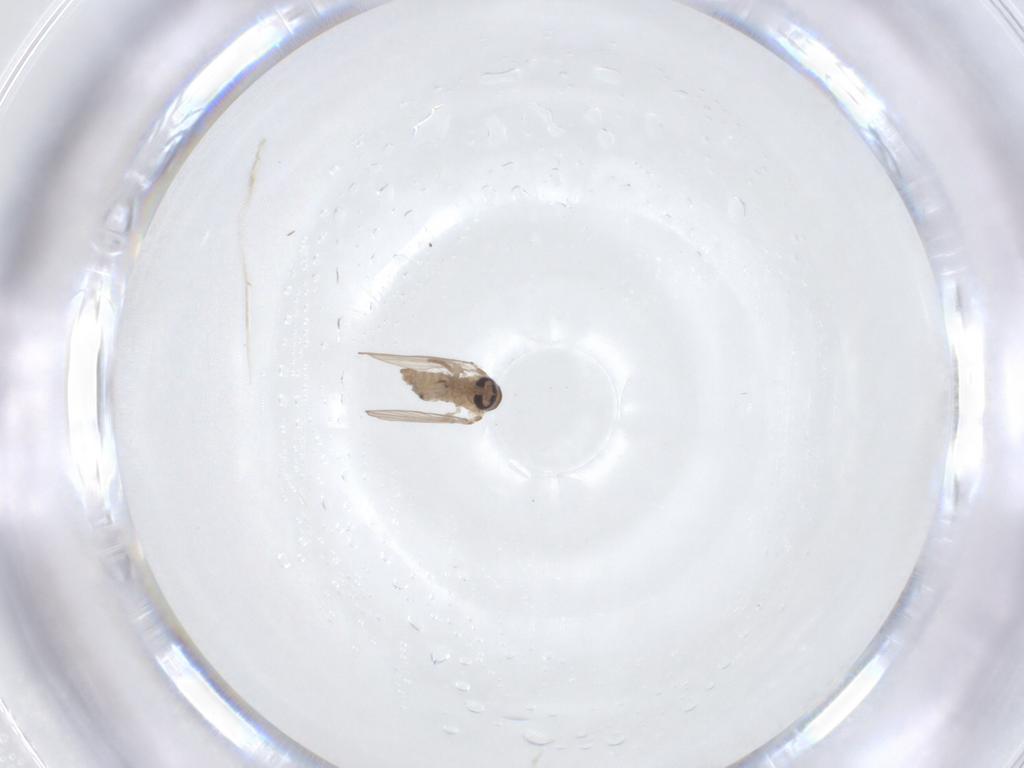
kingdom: Animalia
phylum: Arthropoda
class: Insecta
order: Diptera
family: Psychodidae
